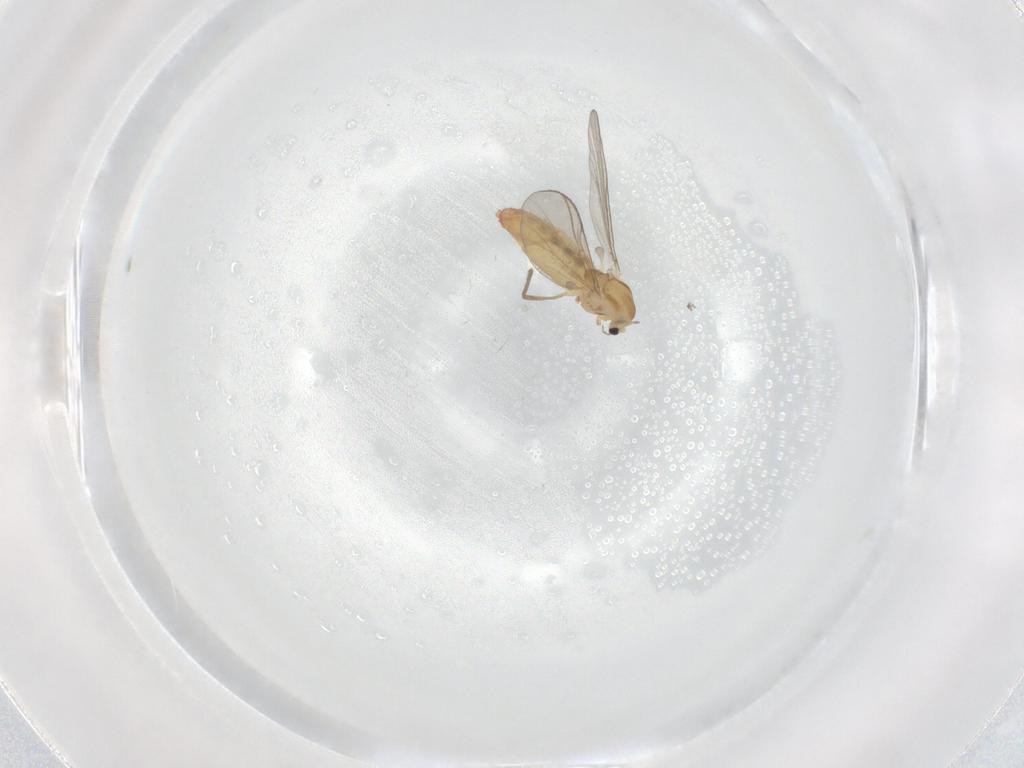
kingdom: Animalia
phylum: Arthropoda
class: Insecta
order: Diptera
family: Chironomidae
